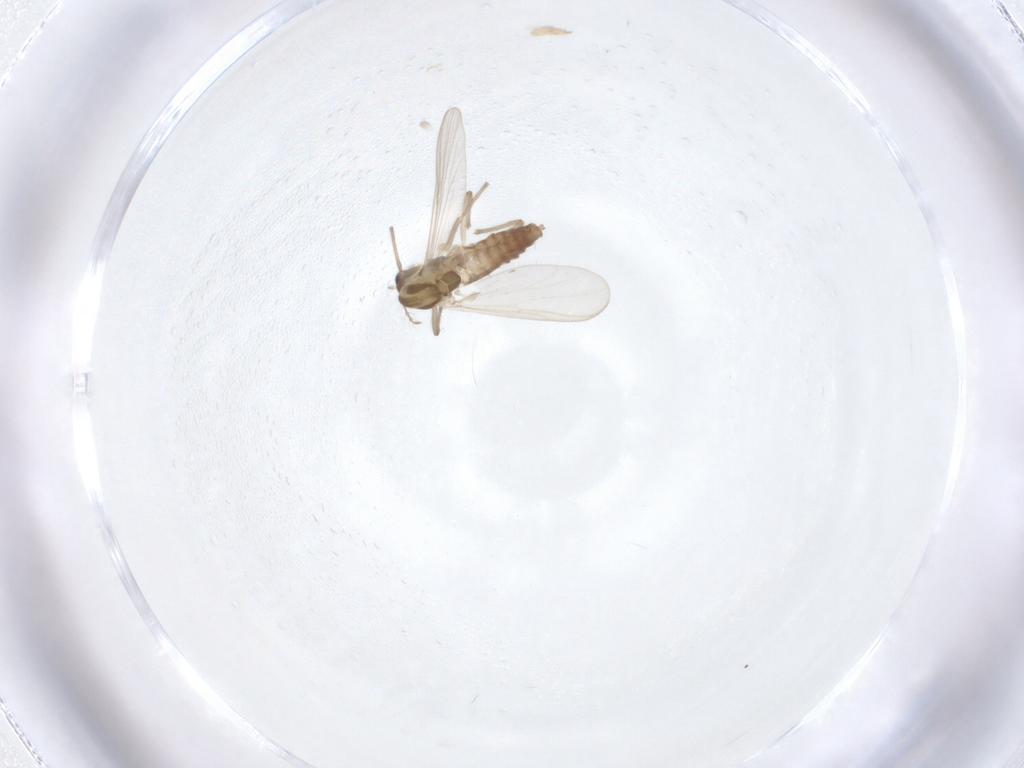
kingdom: Animalia
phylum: Arthropoda
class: Insecta
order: Diptera
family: Chironomidae
